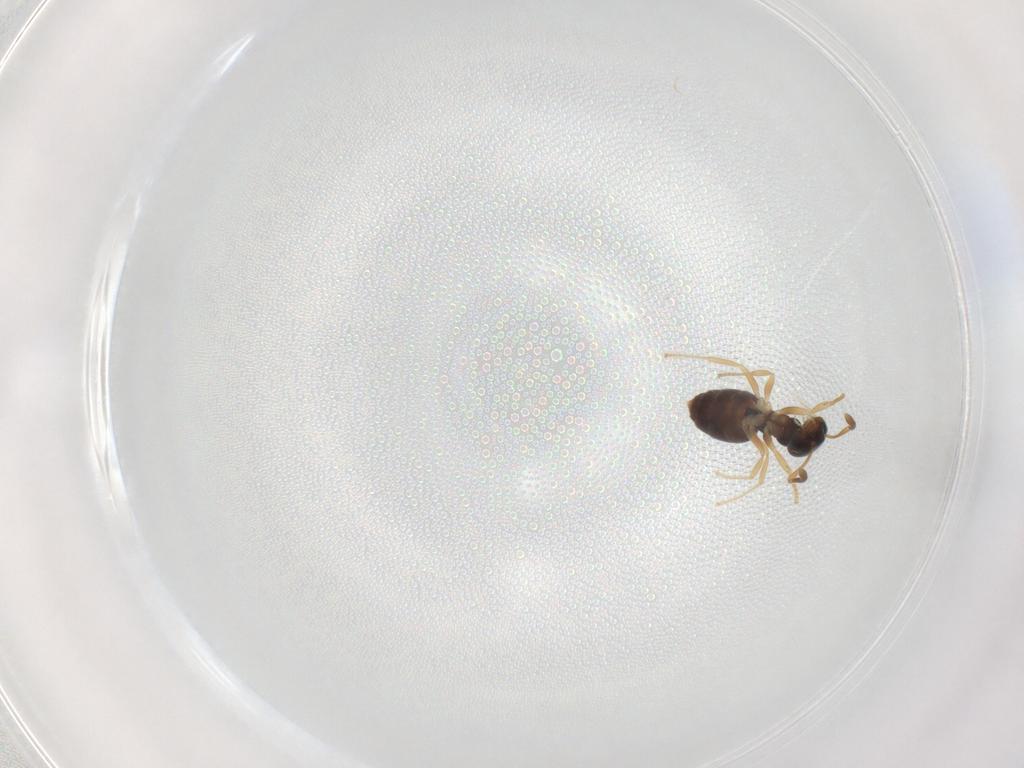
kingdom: Animalia
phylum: Arthropoda
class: Insecta
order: Hymenoptera
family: Formicidae
